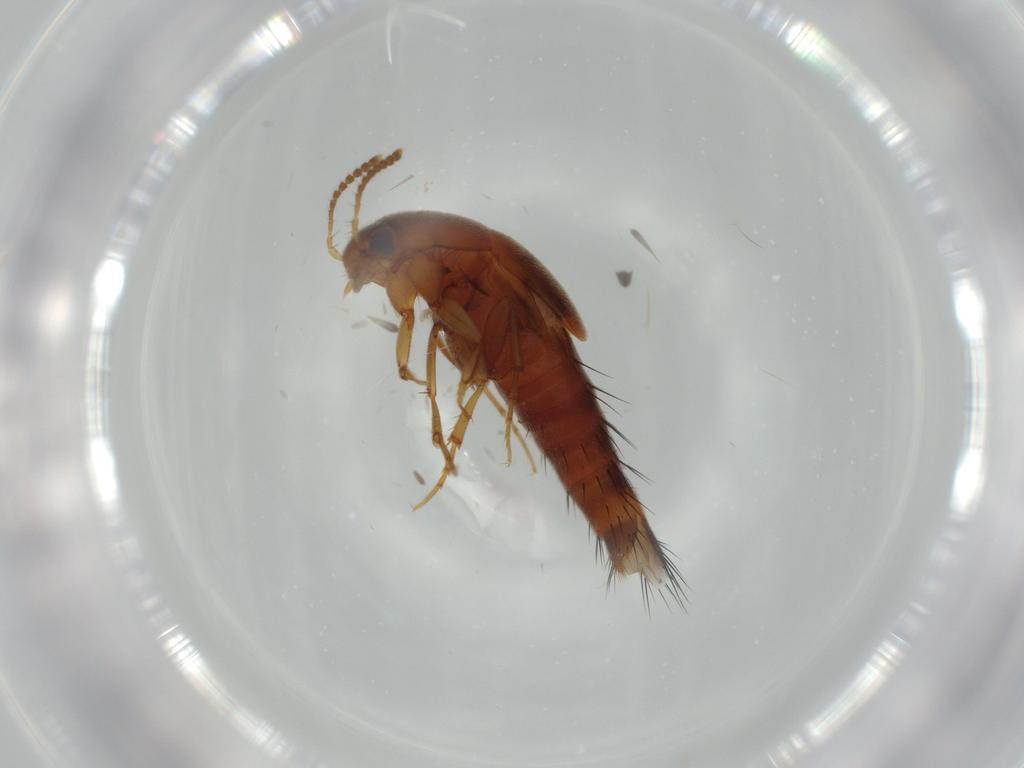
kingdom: Animalia
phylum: Arthropoda
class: Insecta
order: Coleoptera
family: Staphylinidae
